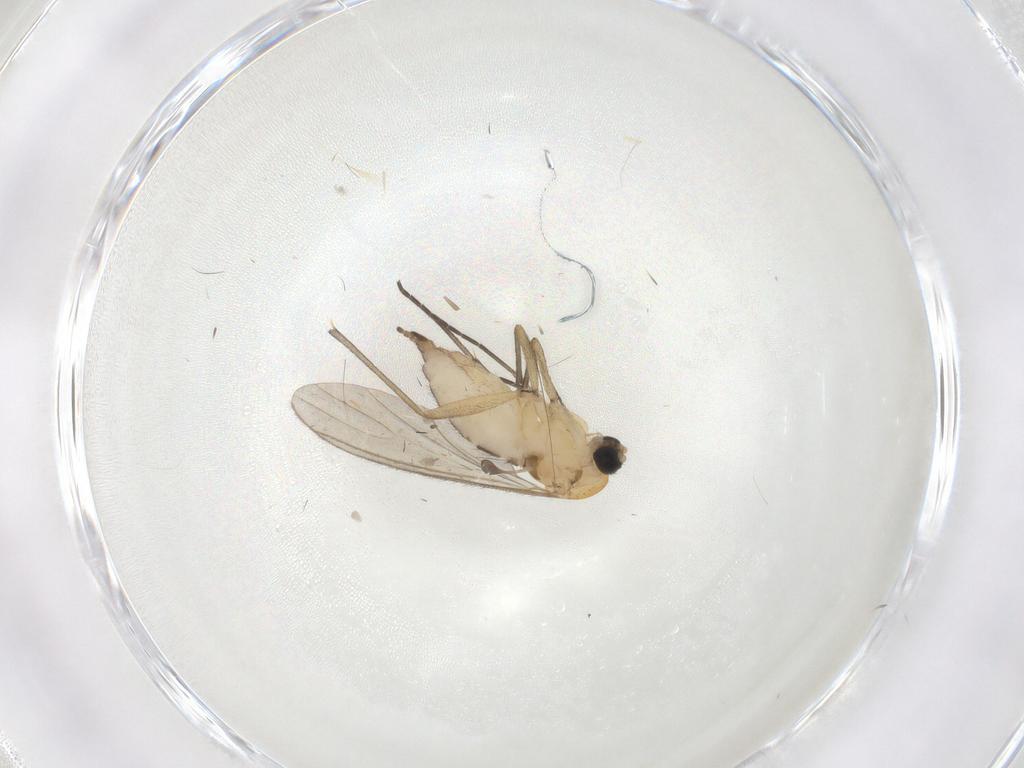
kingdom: Animalia
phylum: Arthropoda
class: Insecta
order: Diptera
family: Sciaridae
